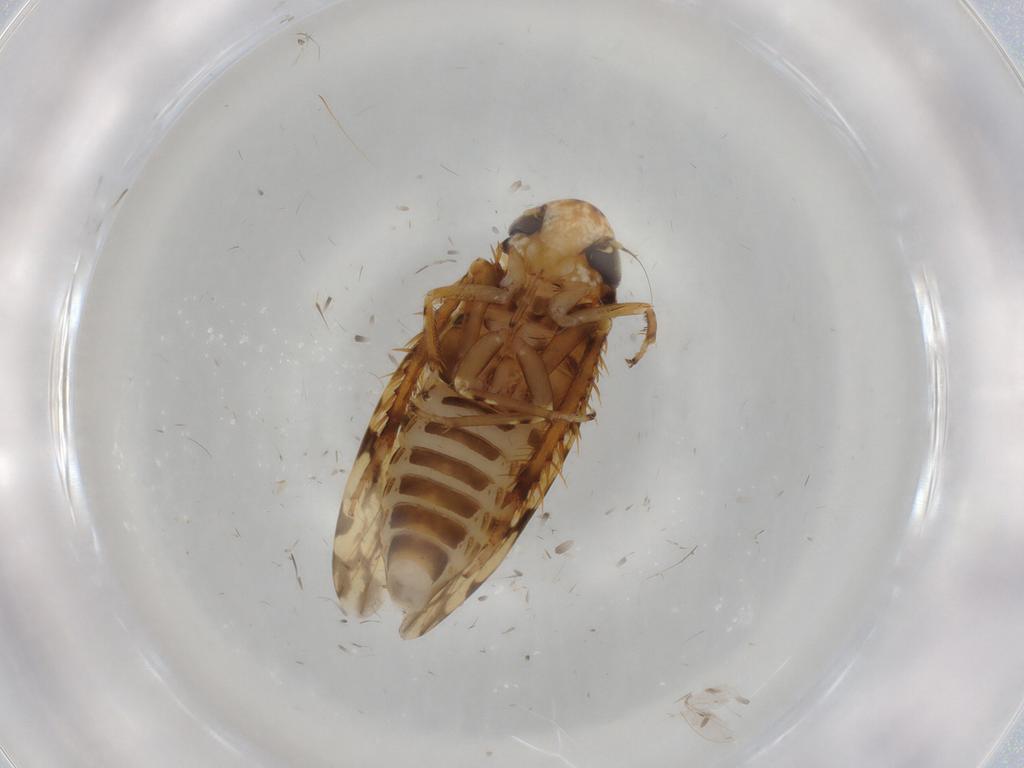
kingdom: Animalia
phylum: Arthropoda
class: Insecta
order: Hemiptera
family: Cicadellidae
